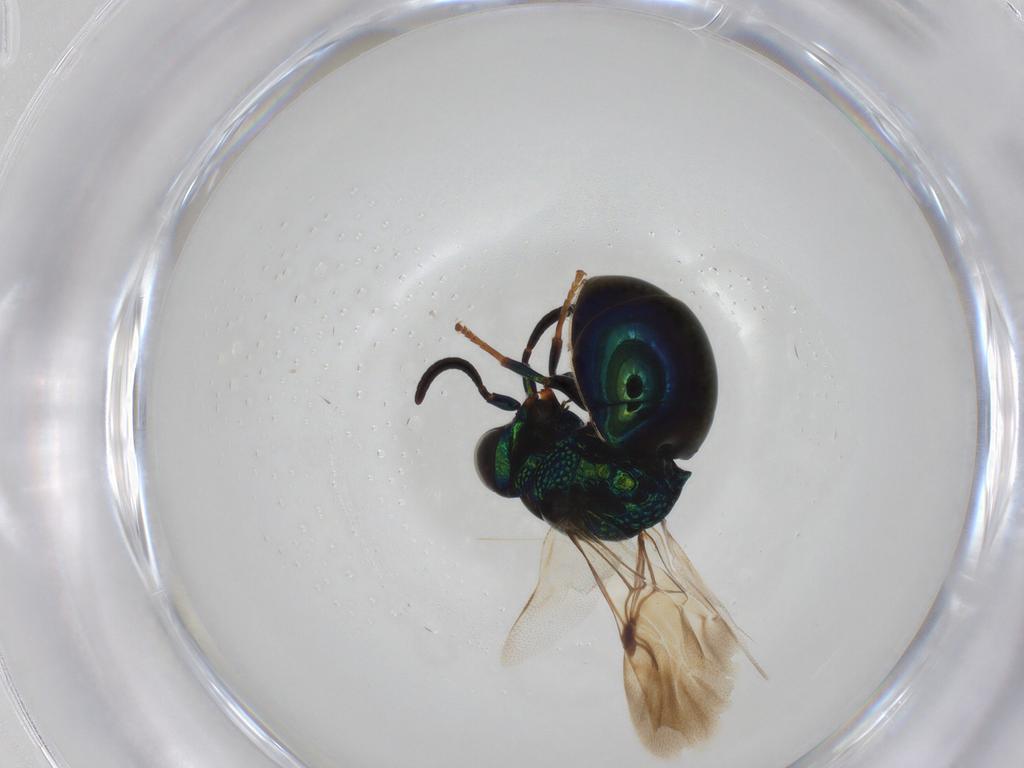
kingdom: Animalia
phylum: Arthropoda
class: Insecta
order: Hymenoptera
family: Chrysididae
